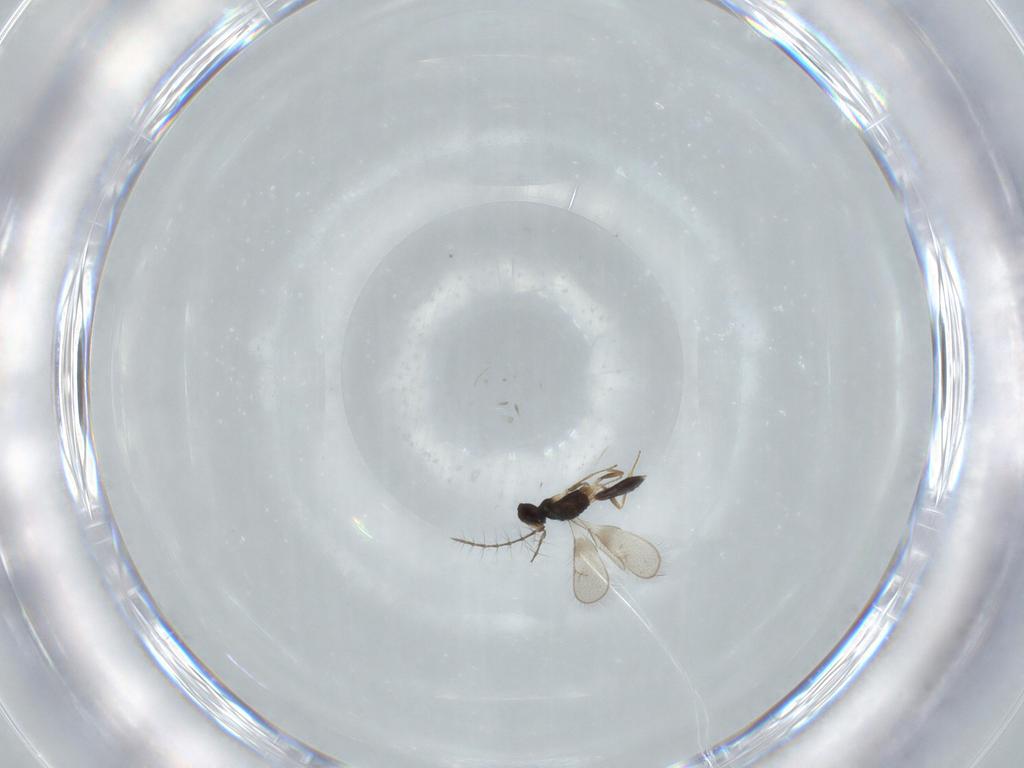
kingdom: Animalia
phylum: Arthropoda
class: Insecta
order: Hymenoptera
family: Eulophidae
